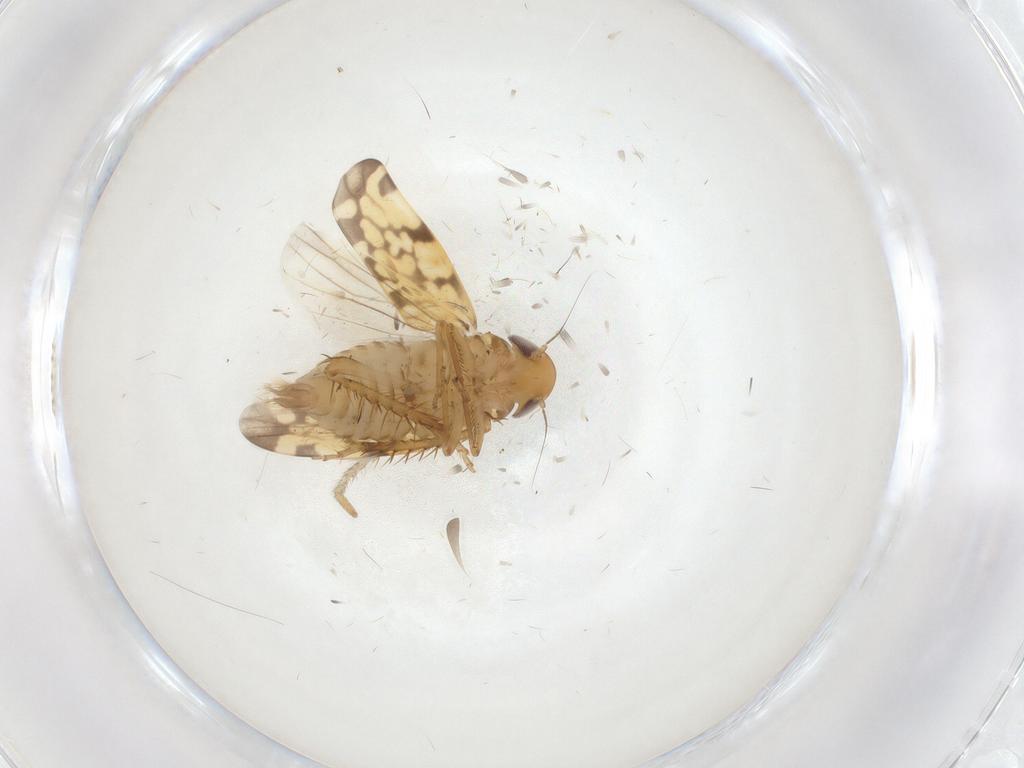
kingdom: Animalia
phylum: Arthropoda
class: Insecta
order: Hemiptera
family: Cicadellidae
